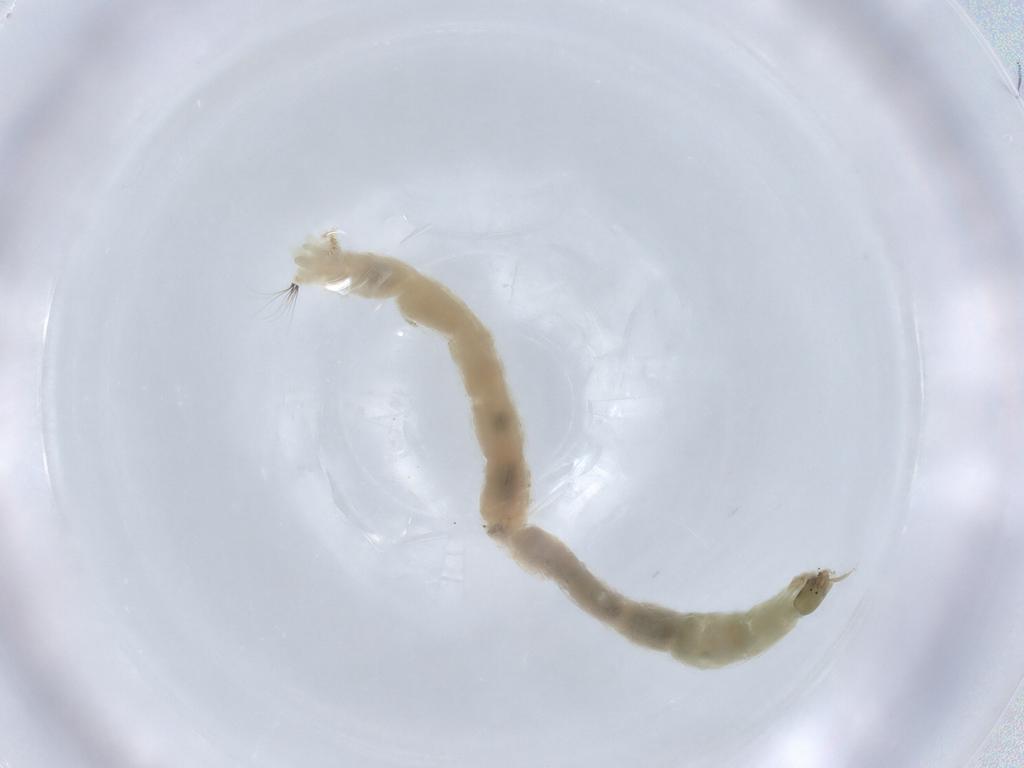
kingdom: Animalia
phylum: Arthropoda
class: Insecta
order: Diptera
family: Chironomidae
